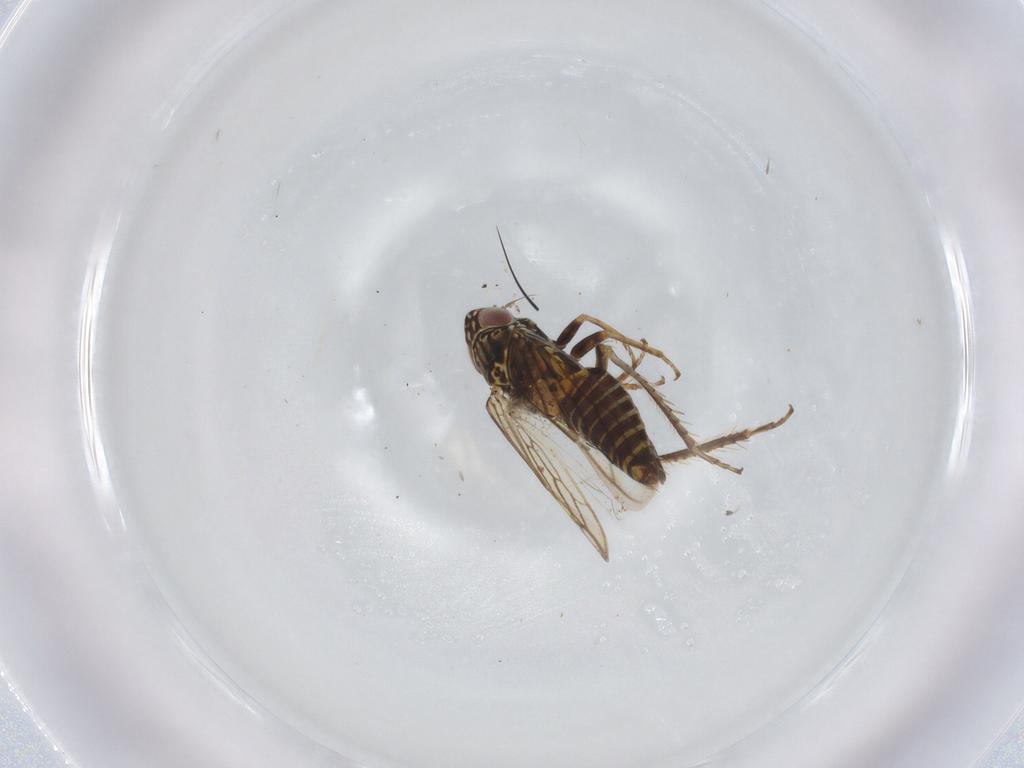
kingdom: Animalia
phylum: Arthropoda
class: Insecta
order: Hemiptera
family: Cicadellidae
